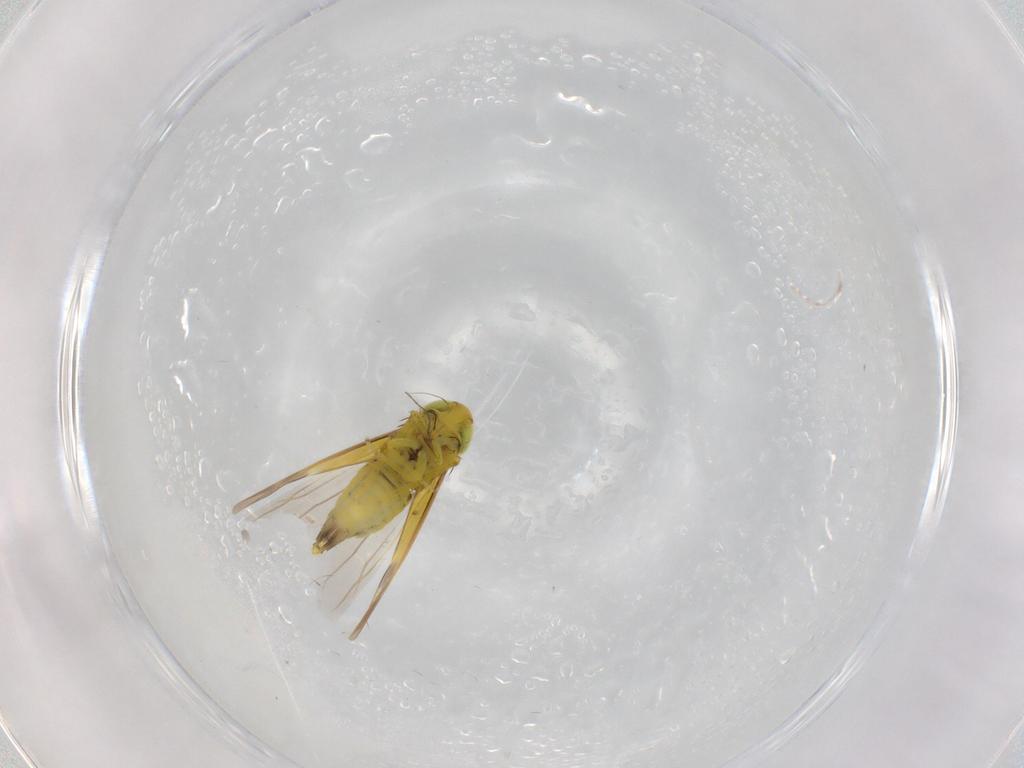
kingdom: Animalia
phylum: Arthropoda
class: Insecta
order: Hemiptera
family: Cicadellidae
